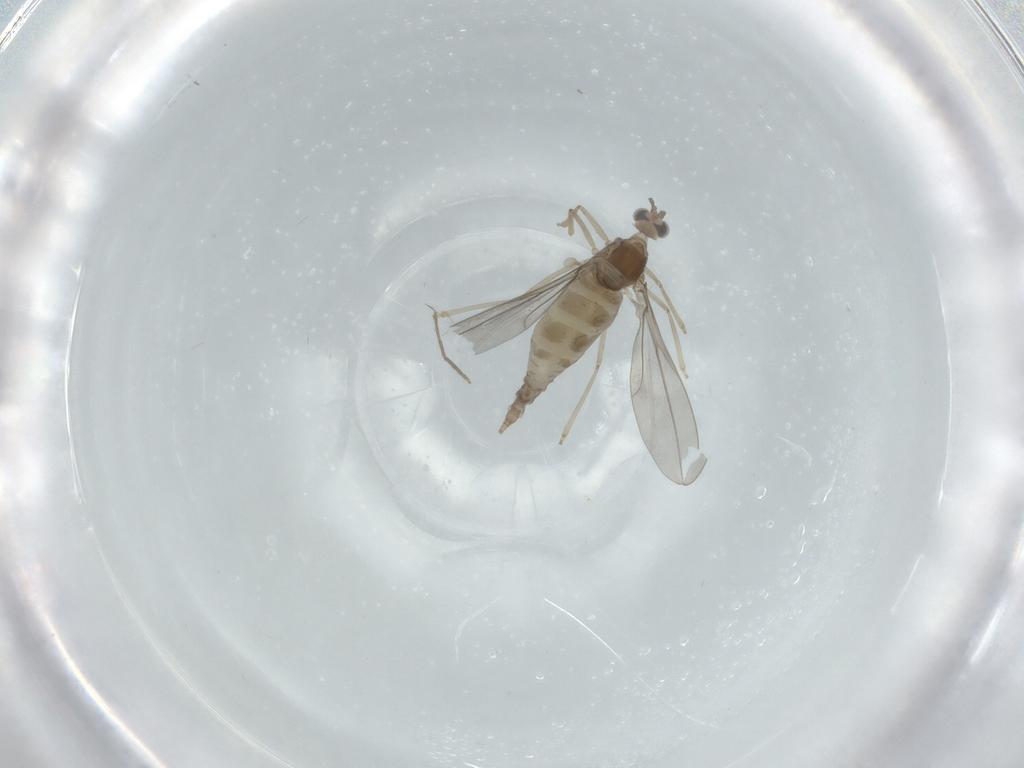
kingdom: Animalia
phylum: Arthropoda
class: Insecta
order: Diptera
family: Cecidomyiidae
